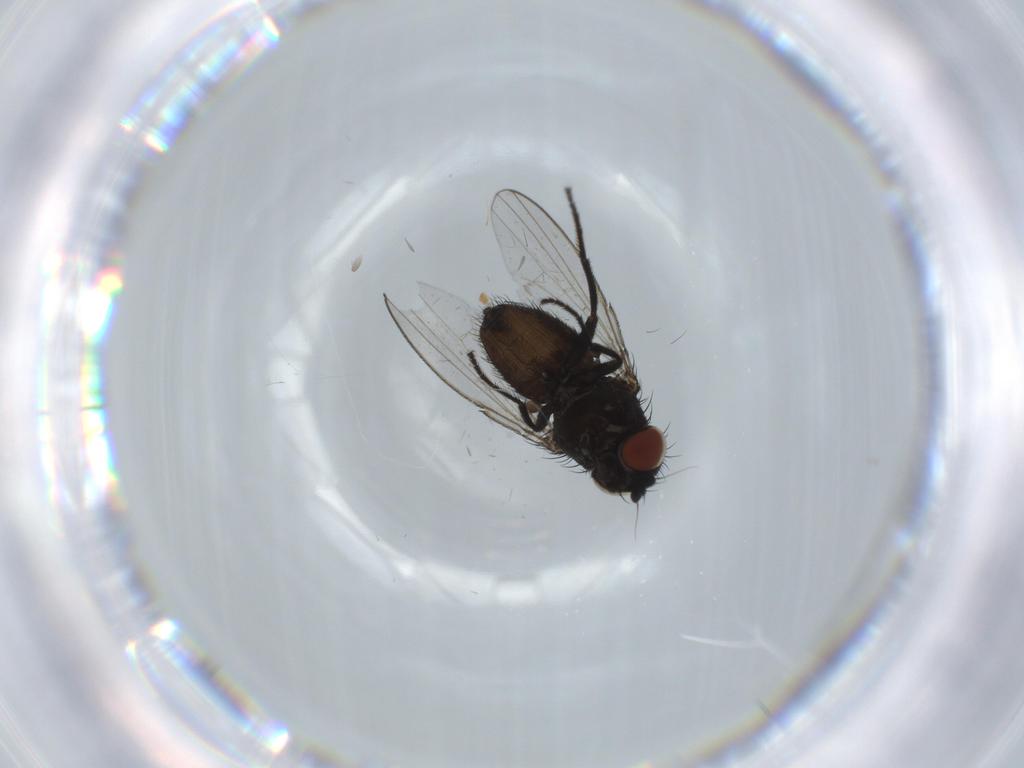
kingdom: Animalia
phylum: Arthropoda
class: Insecta
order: Diptera
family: Milichiidae
